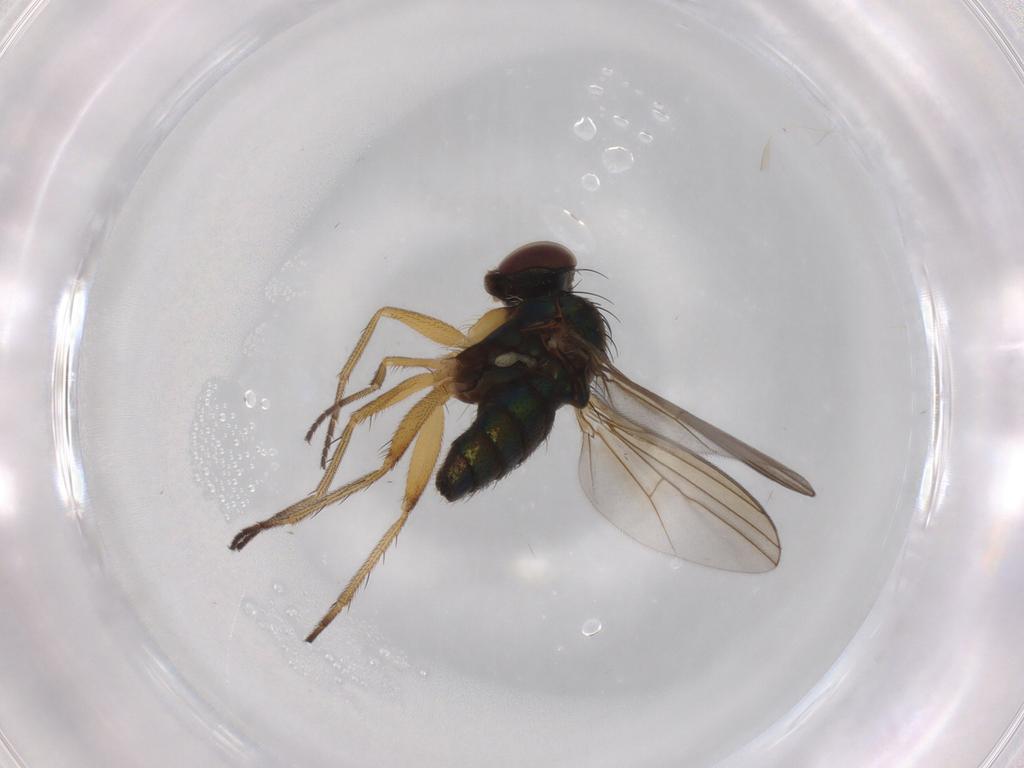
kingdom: Animalia
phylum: Arthropoda
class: Insecta
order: Diptera
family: Dolichopodidae
